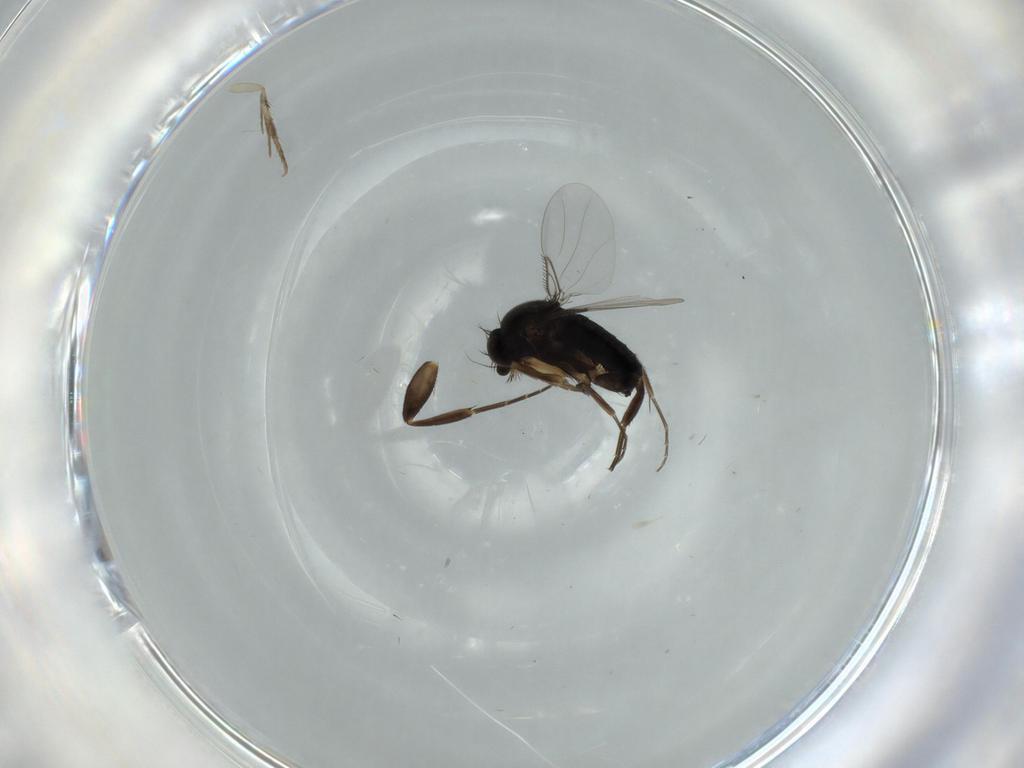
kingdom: Animalia
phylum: Arthropoda
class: Insecta
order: Diptera
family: Phoridae
